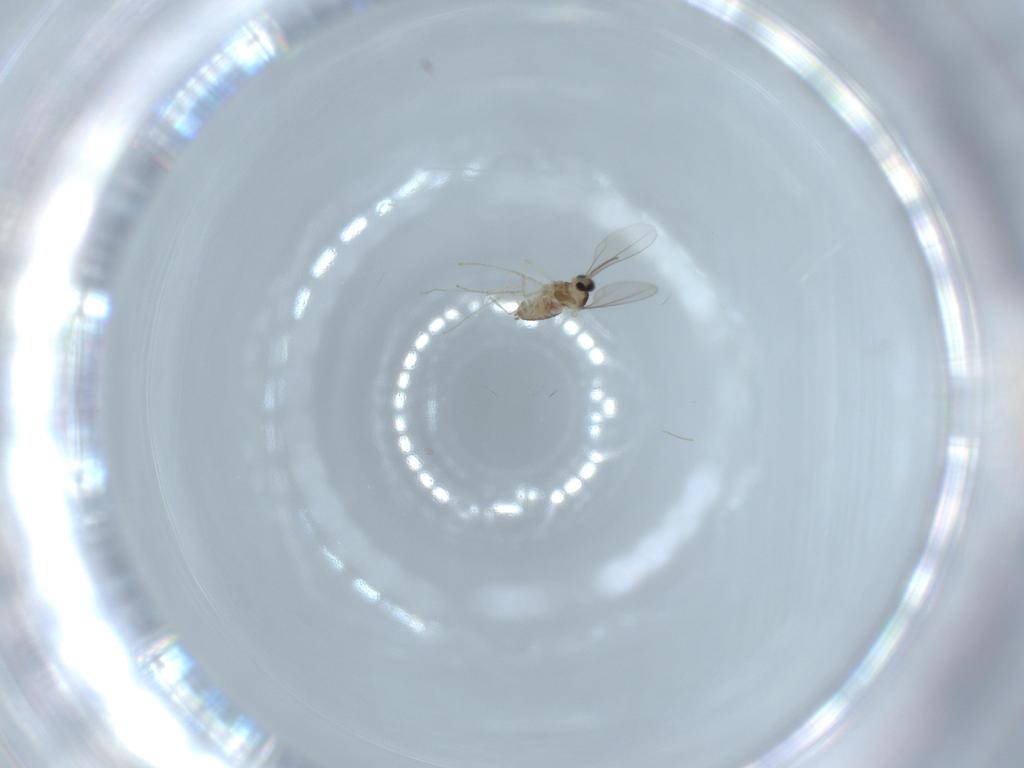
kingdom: Animalia
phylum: Arthropoda
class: Insecta
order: Diptera
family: Cecidomyiidae
